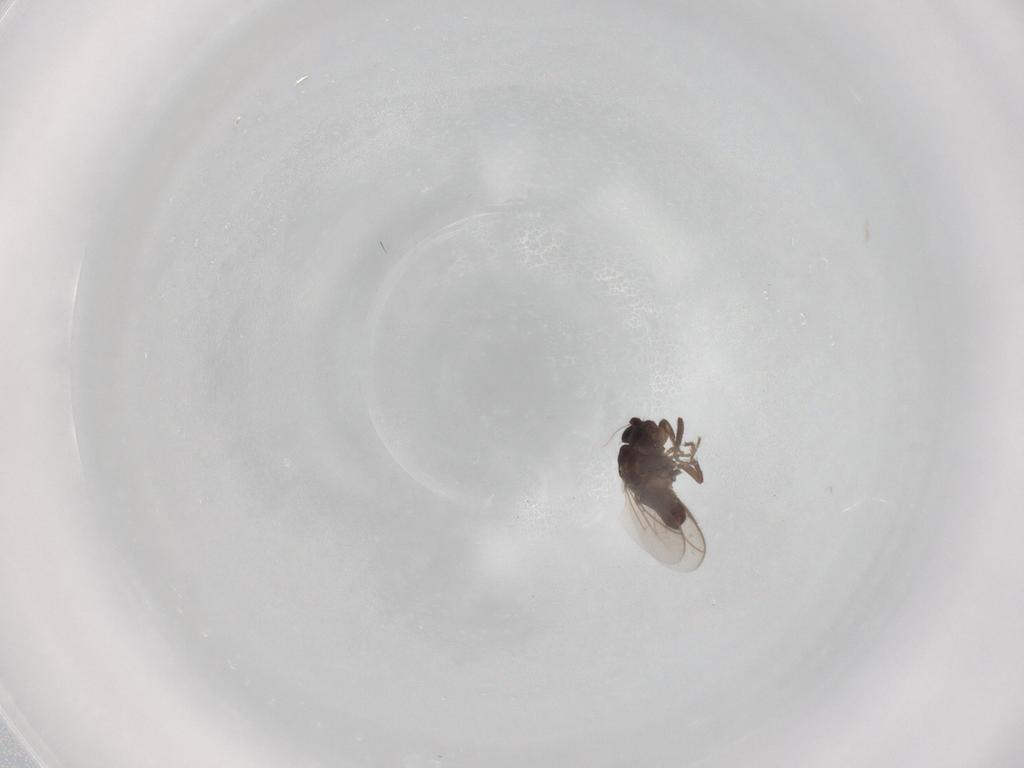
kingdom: Animalia
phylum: Arthropoda
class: Insecta
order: Diptera
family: Sphaeroceridae
